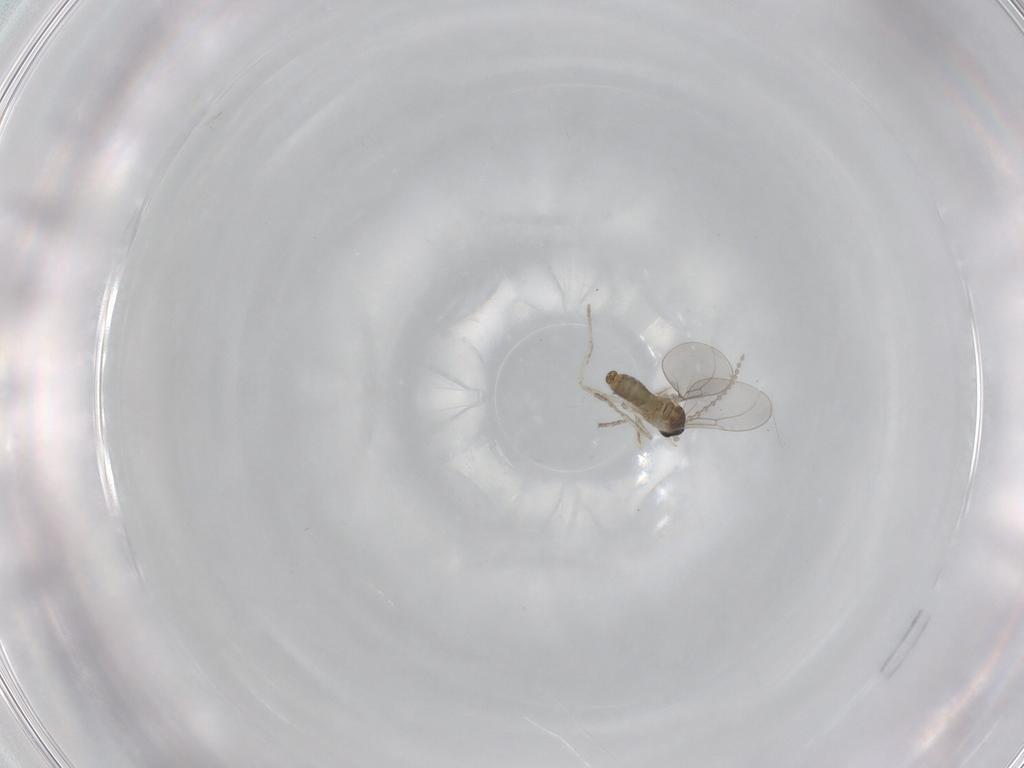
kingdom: Animalia
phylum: Arthropoda
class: Insecta
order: Diptera
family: Cecidomyiidae
